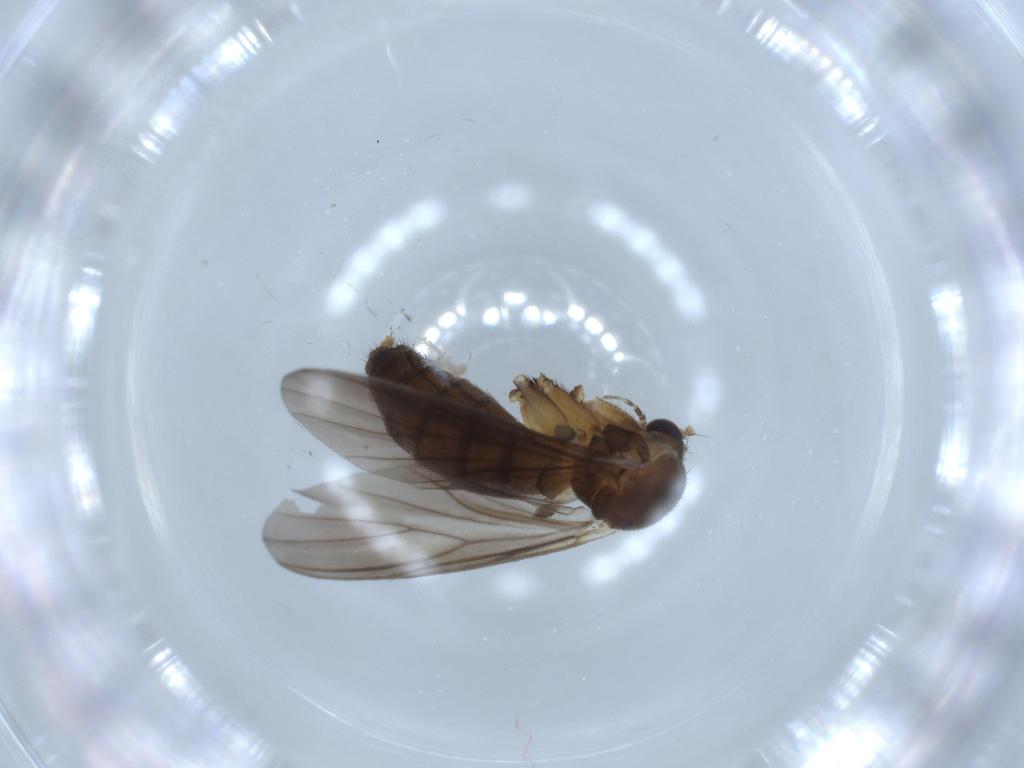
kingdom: Animalia
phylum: Arthropoda
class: Insecta
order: Diptera
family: Mycetophilidae
